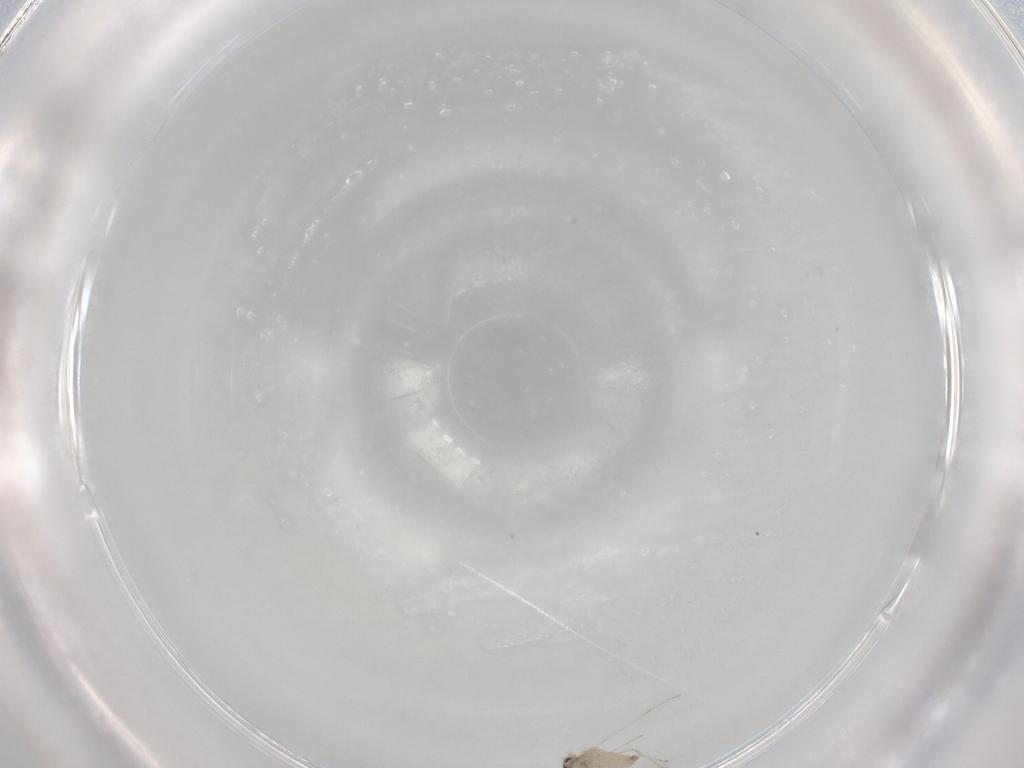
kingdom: Animalia
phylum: Arthropoda
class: Insecta
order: Diptera
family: Cecidomyiidae
